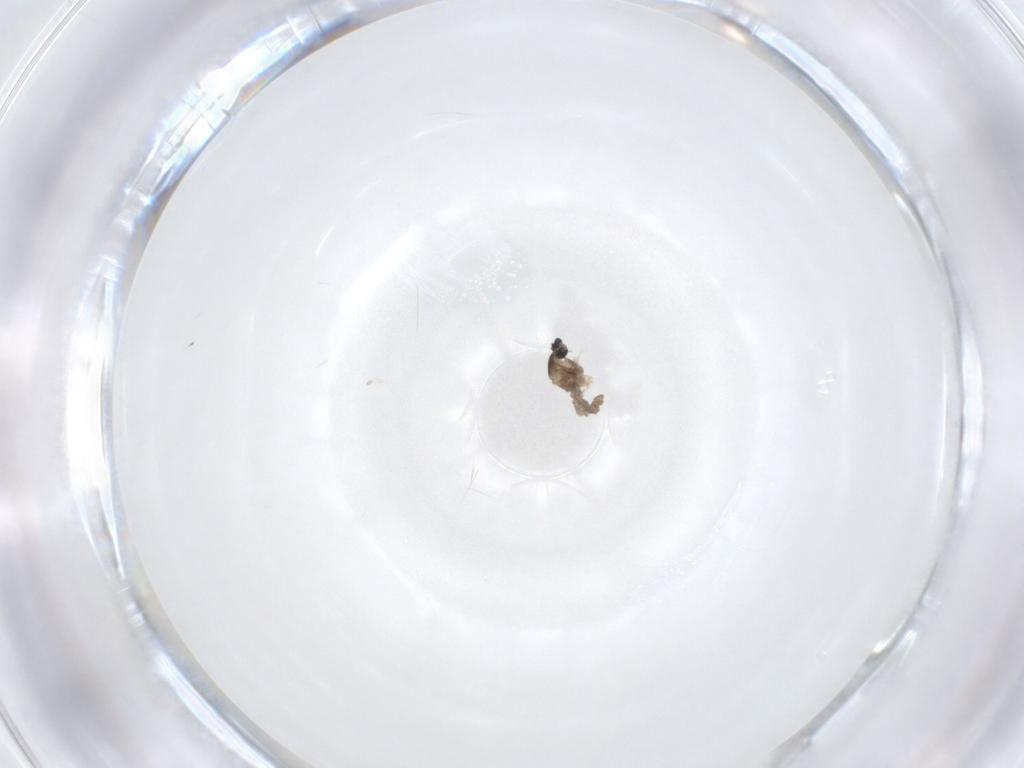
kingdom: Animalia
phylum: Arthropoda
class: Insecta
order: Diptera
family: Cecidomyiidae
